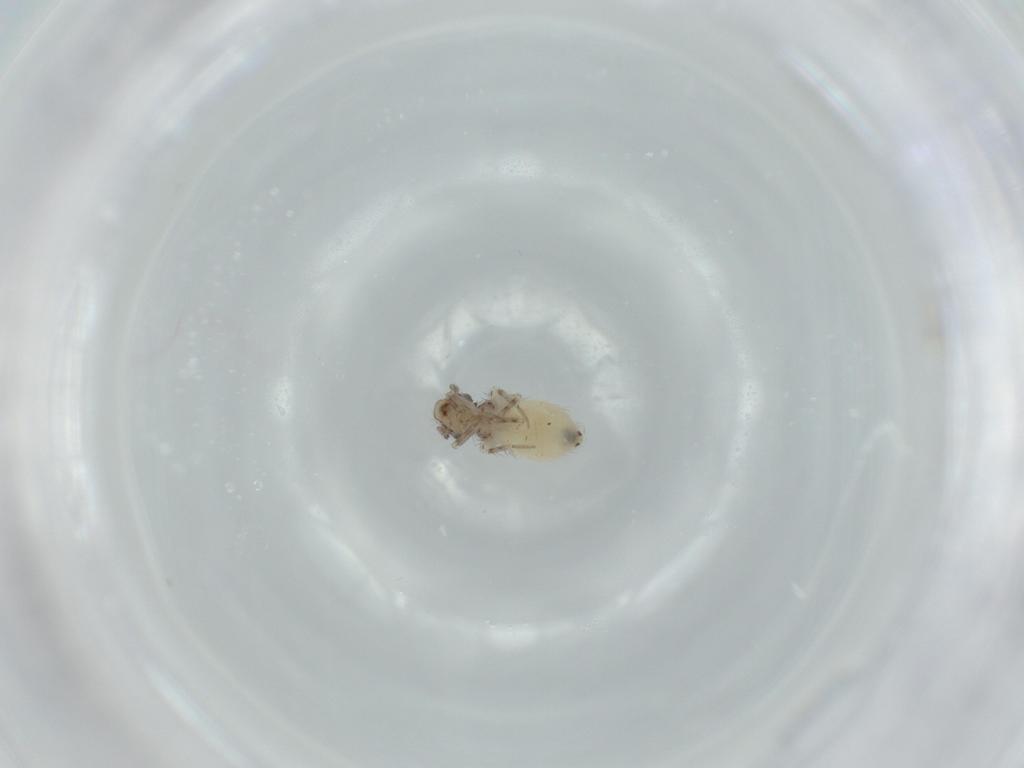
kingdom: Animalia
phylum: Arthropoda
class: Insecta
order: Psocodea
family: Lepidopsocidae
